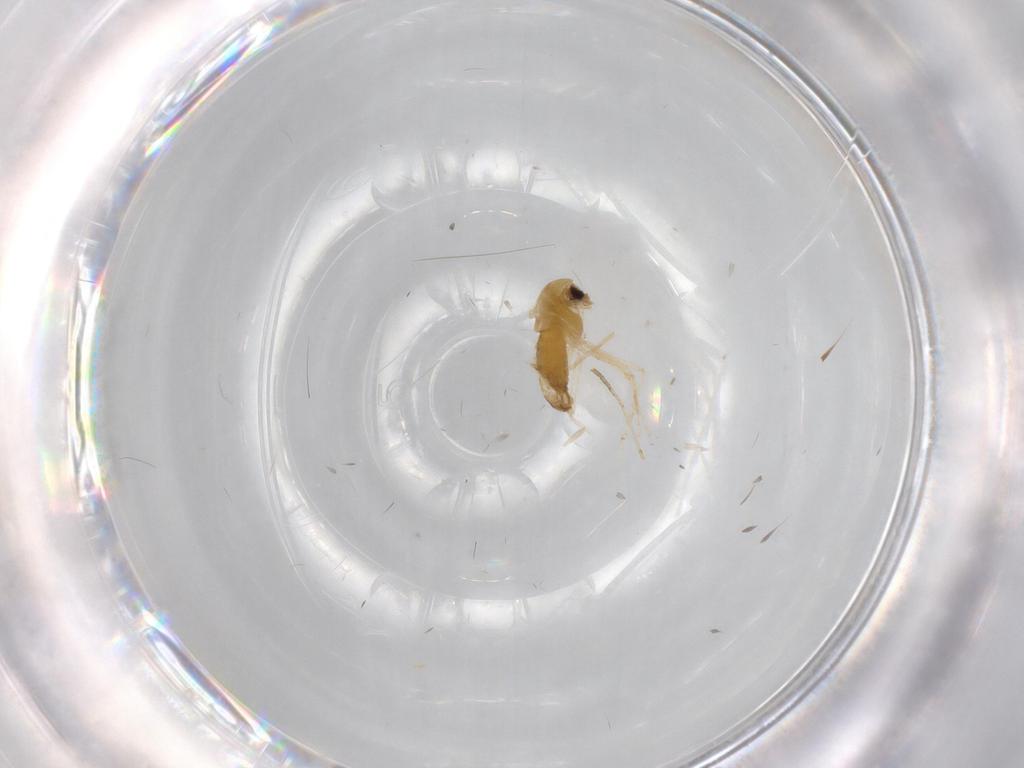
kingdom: Animalia
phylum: Arthropoda
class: Insecta
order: Diptera
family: Chironomidae
